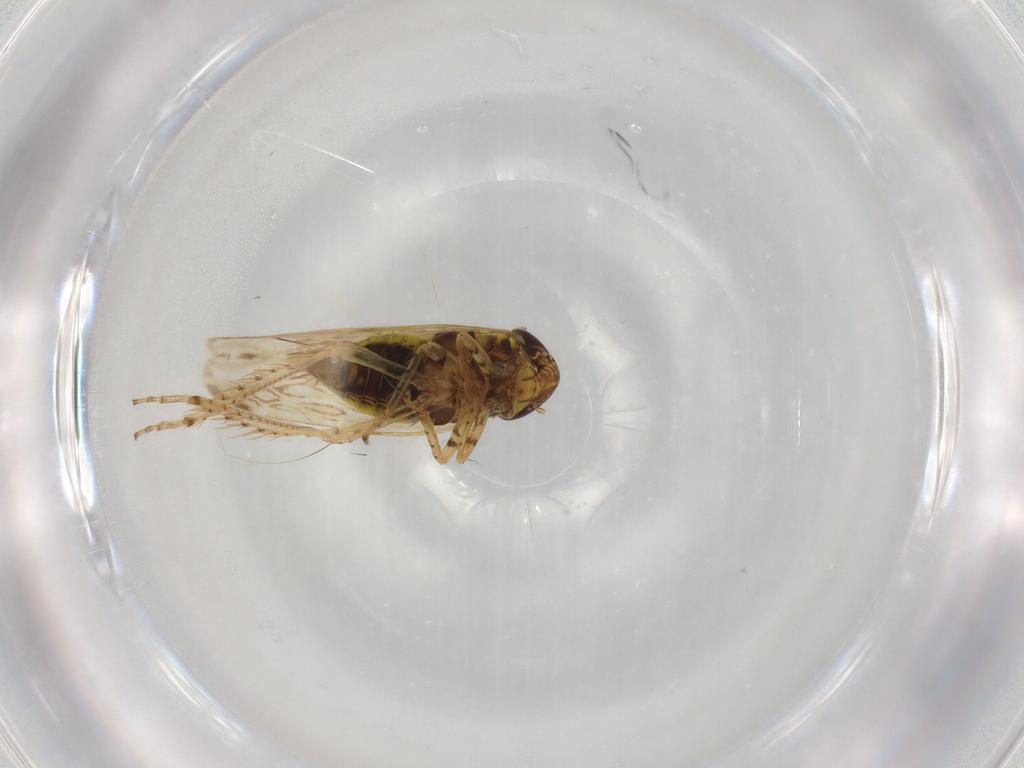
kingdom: Animalia
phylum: Arthropoda
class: Insecta
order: Hemiptera
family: Cicadellidae
